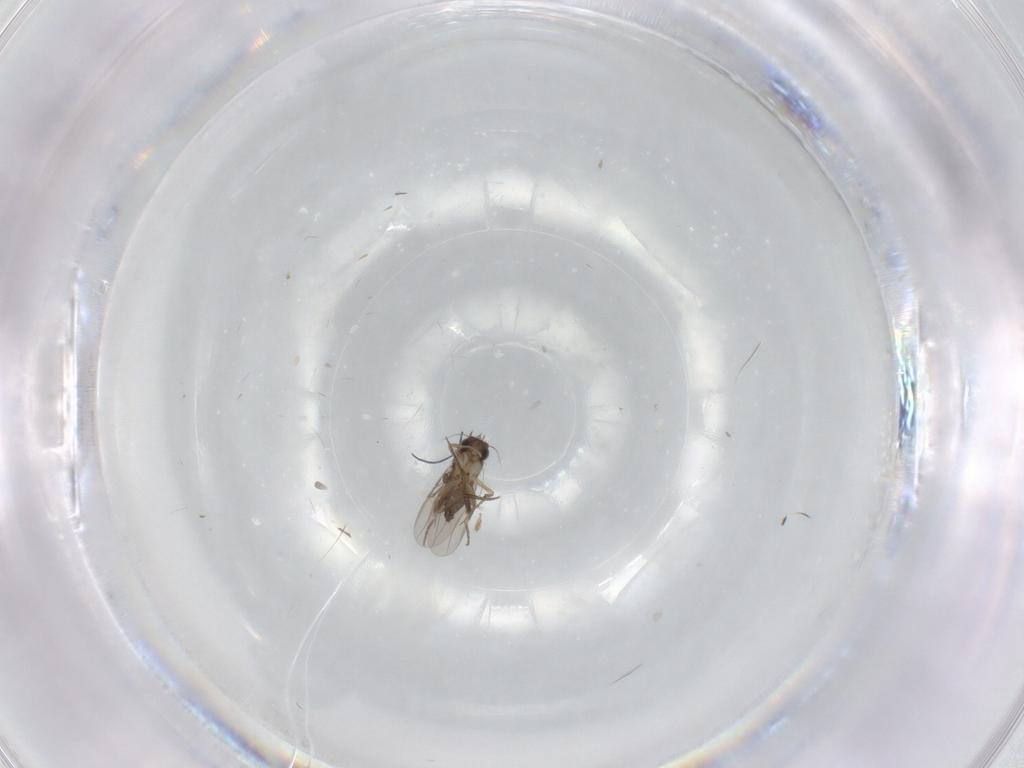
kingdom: Animalia
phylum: Arthropoda
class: Insecta
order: Diptera
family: Phoridae
